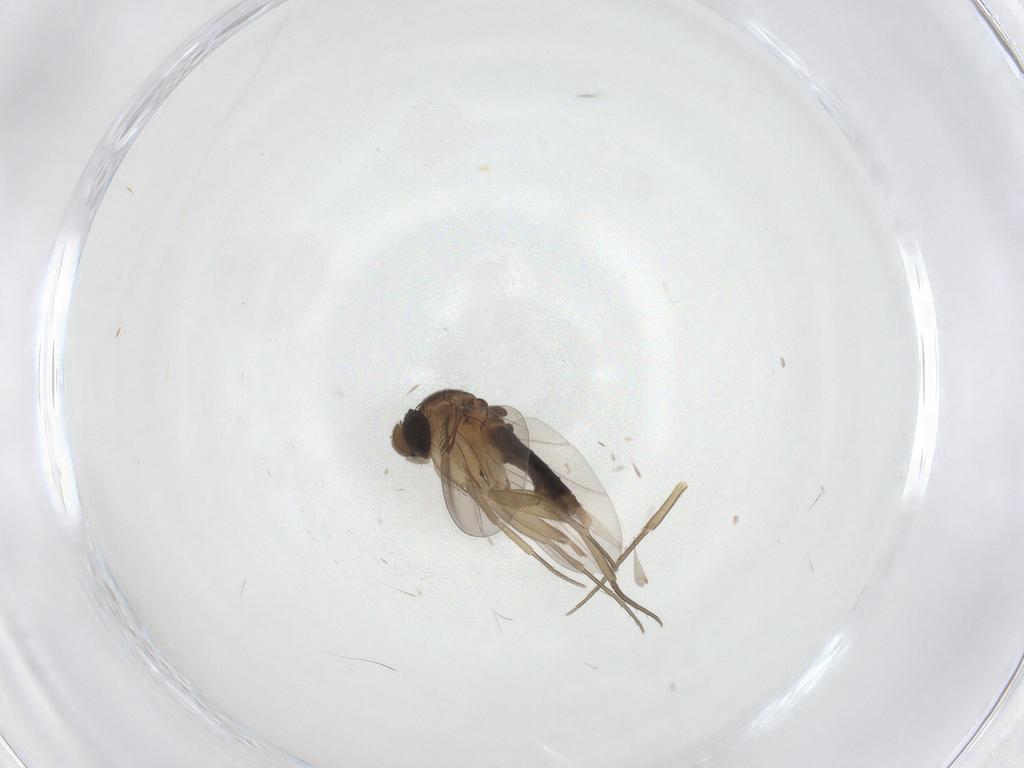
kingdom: Animalia
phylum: Arthropoda
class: Insecta
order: Diptera
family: Phoridae
